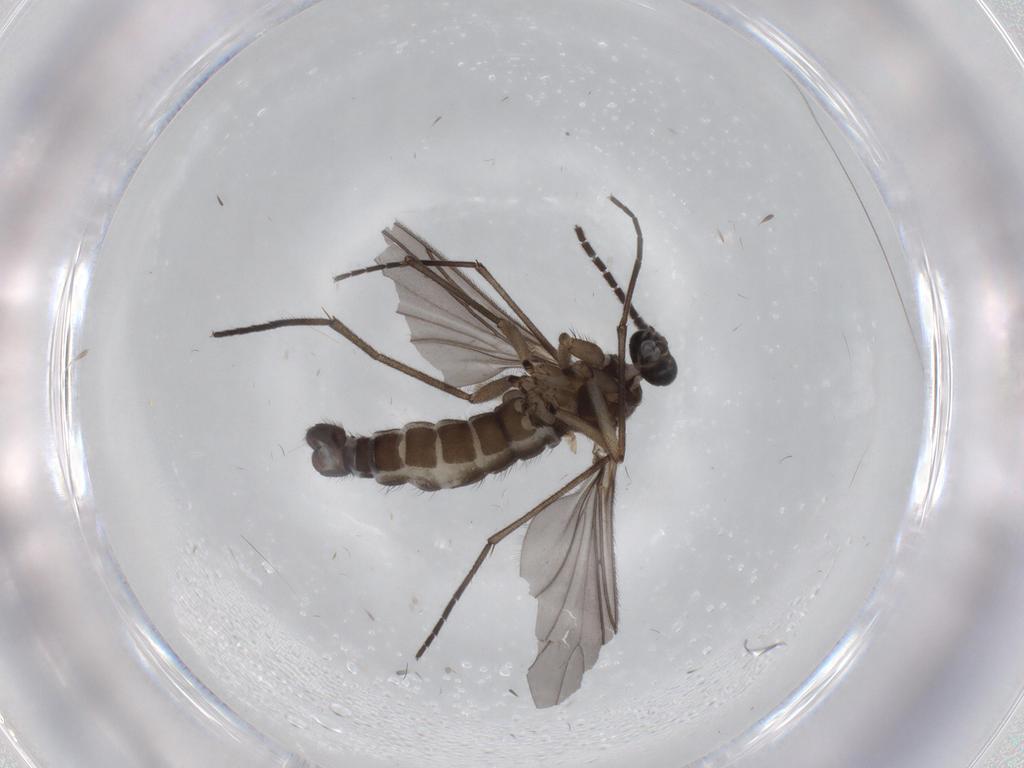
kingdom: Animalia
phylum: Arthropoda
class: Insecta
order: Diptera
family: Sciaridae
